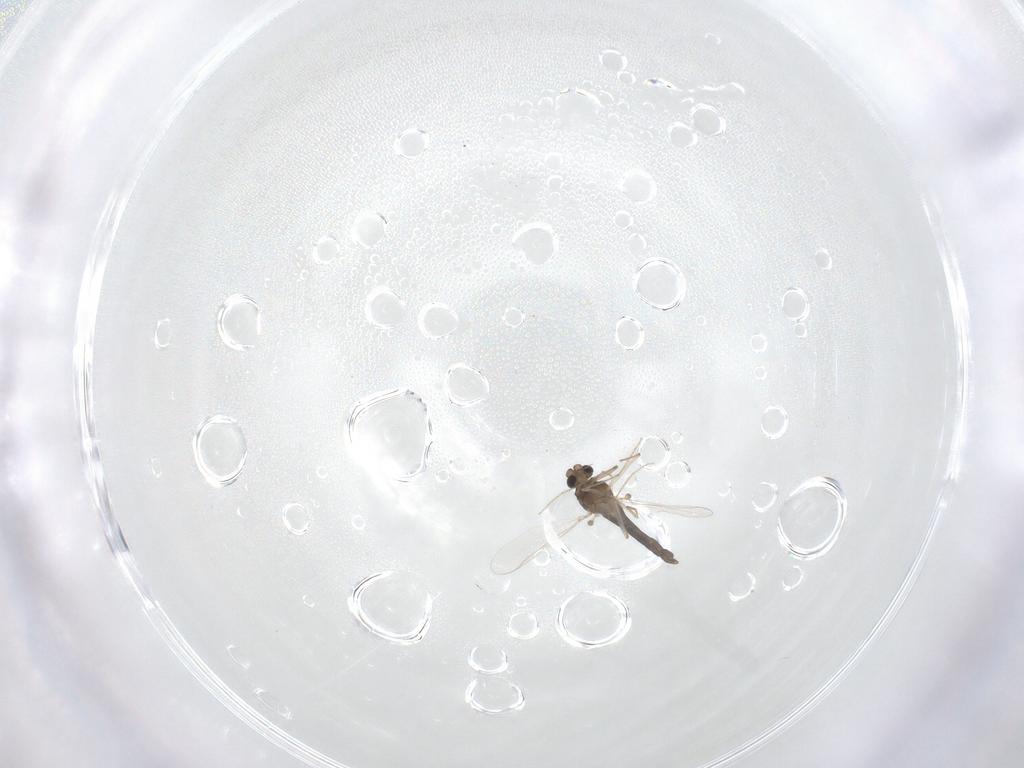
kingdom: Animalia
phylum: Arthropoda
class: Insecta
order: Diptera
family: Chironomidae
